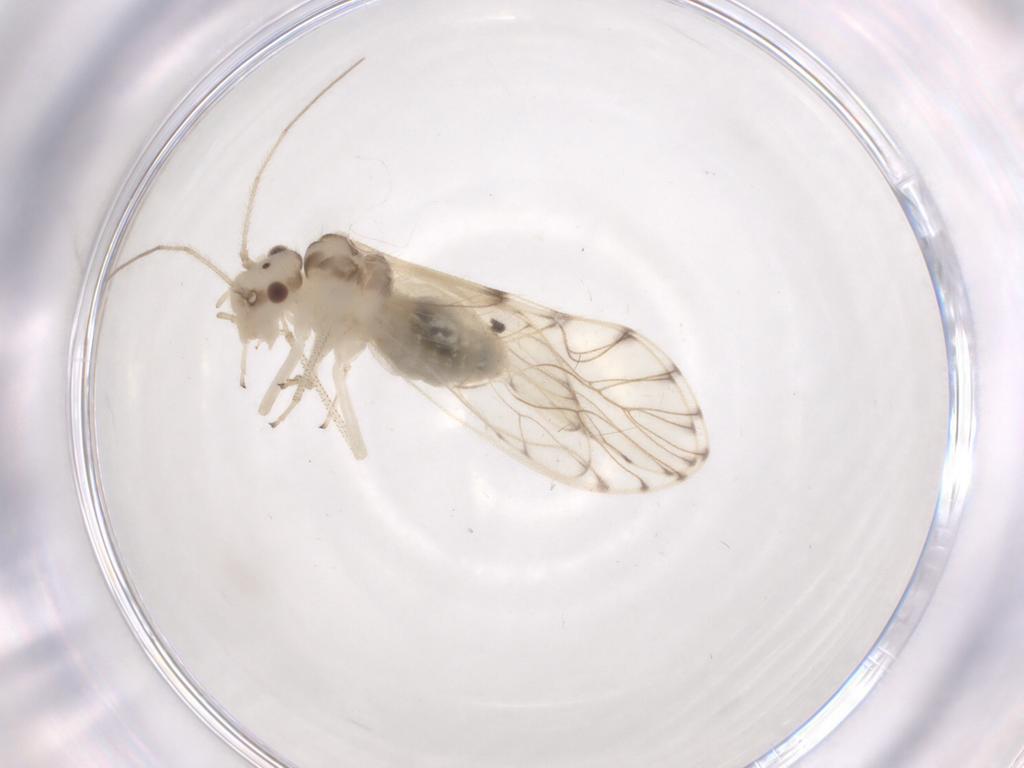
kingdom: Animalia
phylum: Arthropoda
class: Insecta
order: Psocodea
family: Philotarsidae
